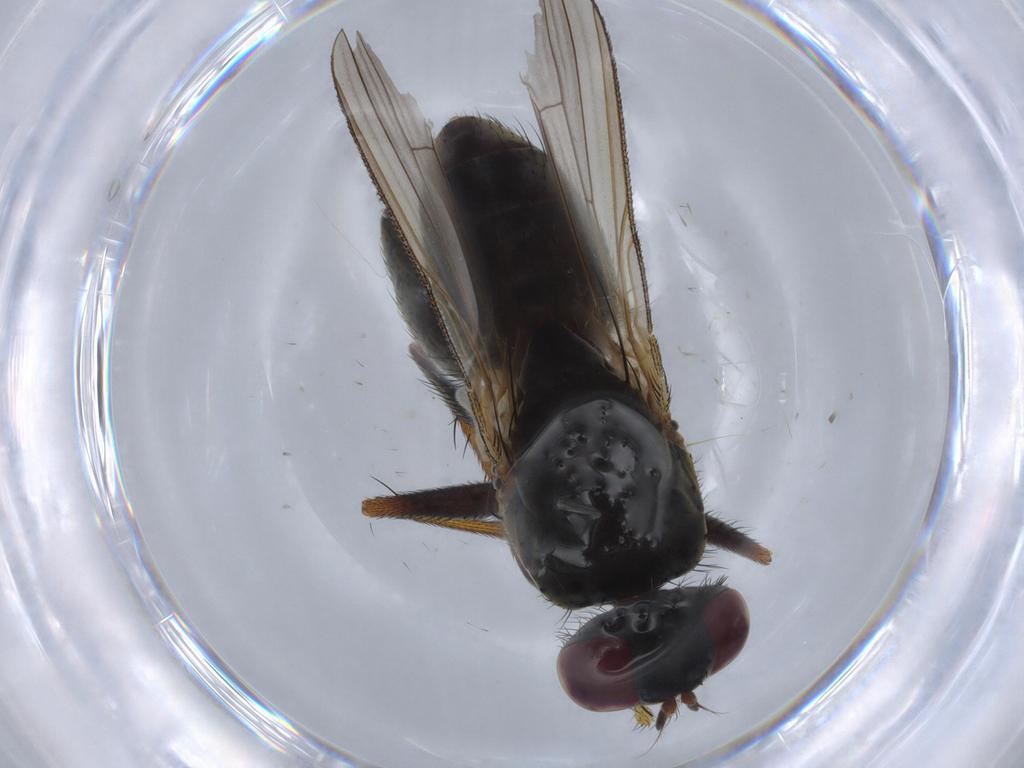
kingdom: Animalia
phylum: Arthropoda
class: Insecta
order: Diptera
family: Muscidae
